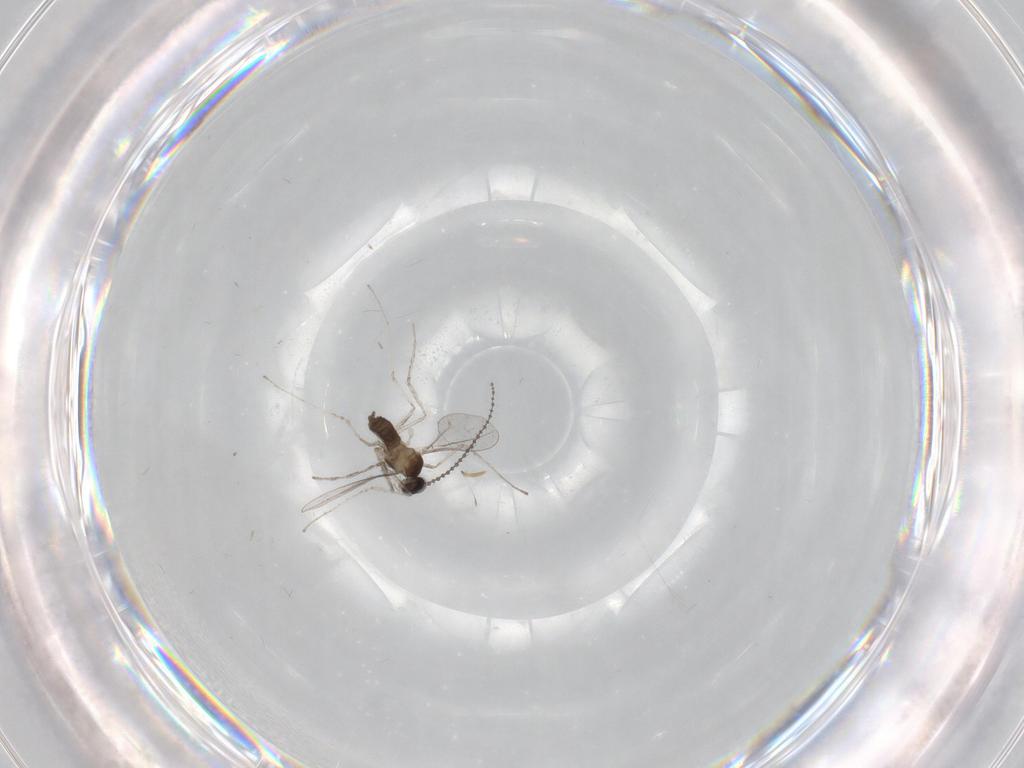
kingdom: Animalia
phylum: Arthropoda
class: Insecta
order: Diptera
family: Cecidomyiidae
